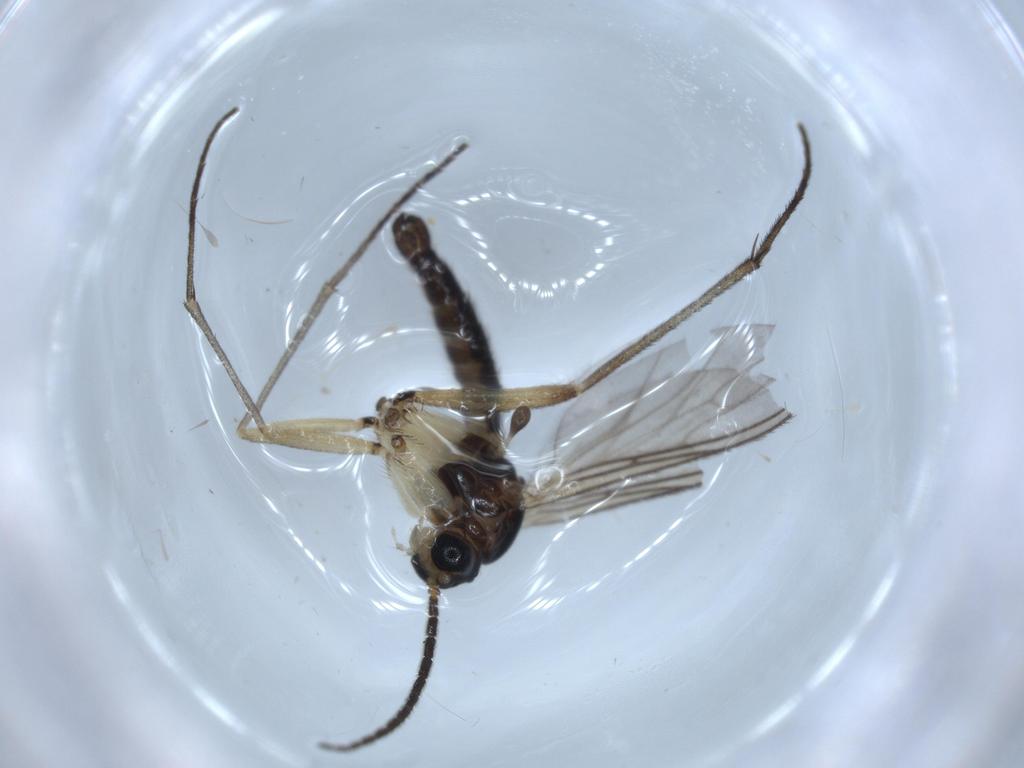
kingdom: Animalia
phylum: Arthropoda
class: Insecta
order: Diptera
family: Sciaridae
